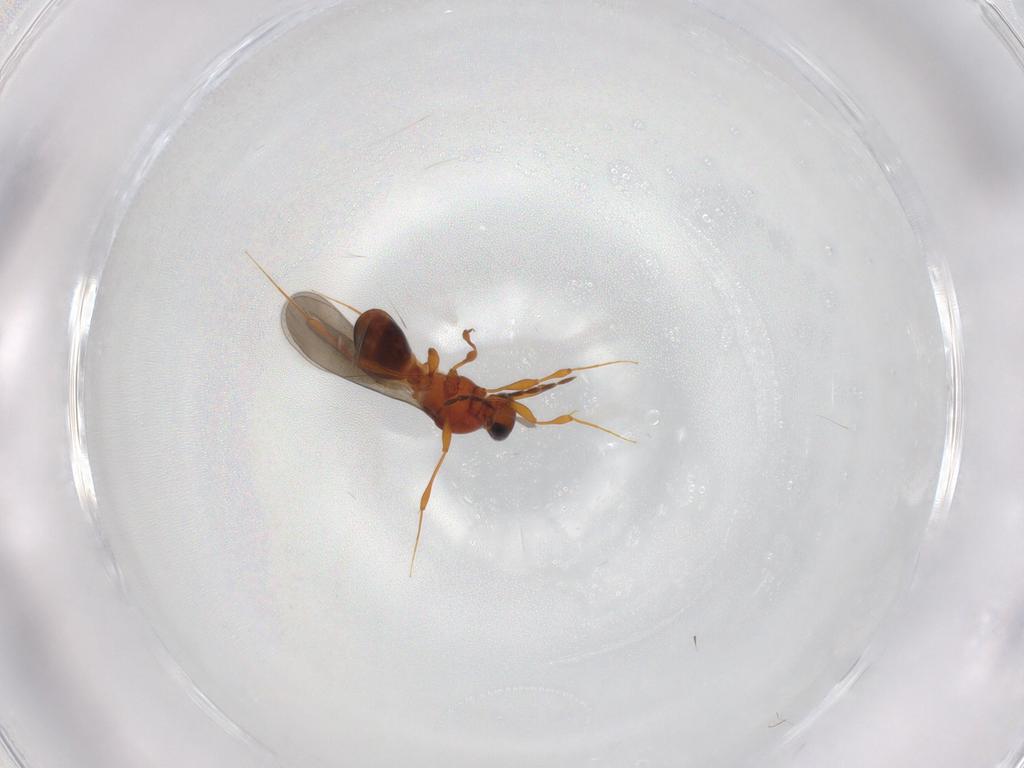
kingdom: Animalia
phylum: Arthropoda
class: Insecta
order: Hymenoptera
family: Platygastridae
